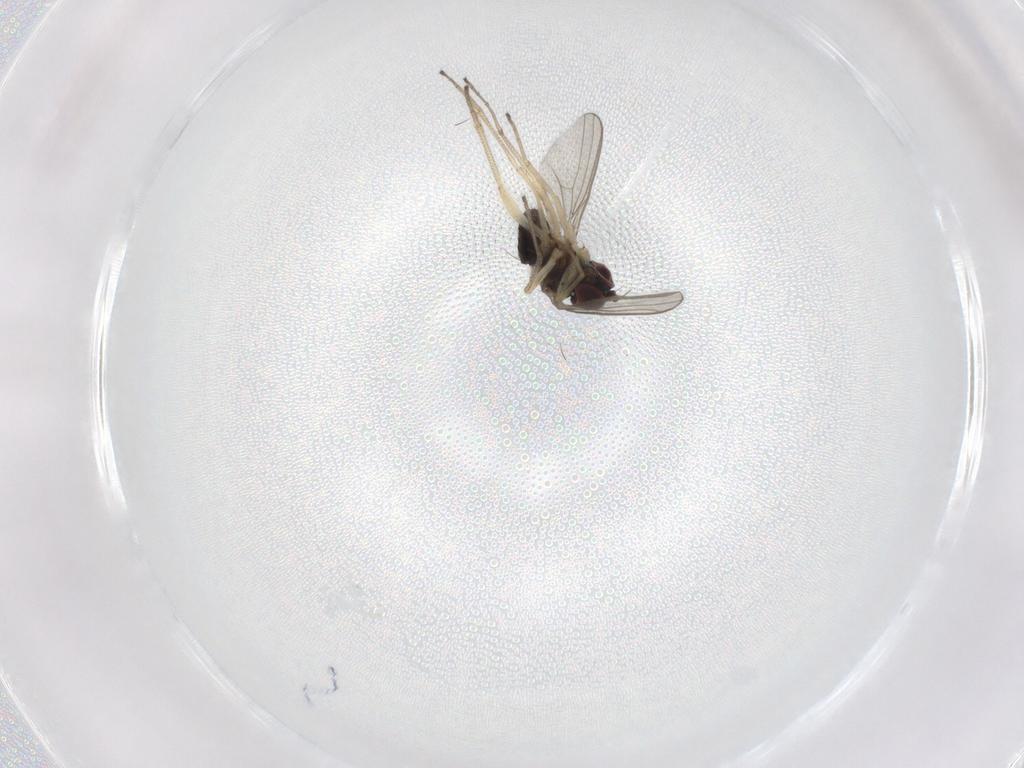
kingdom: Animalia
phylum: Arthropoda
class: Insecta
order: Diptera
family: Dolichopodidae
